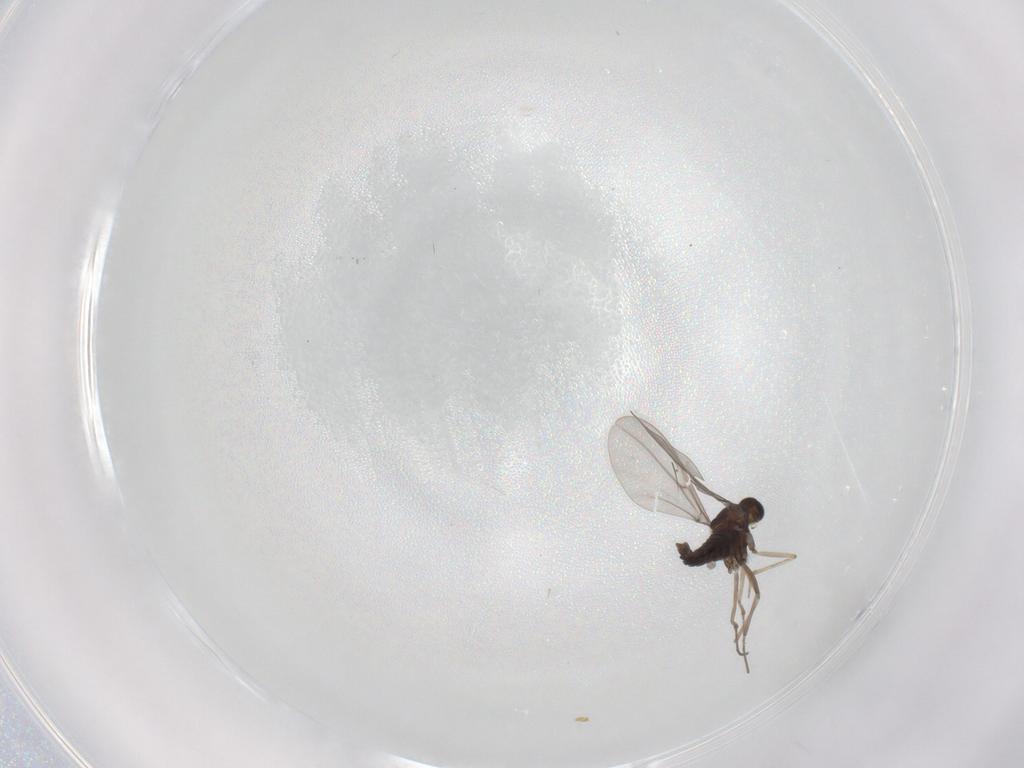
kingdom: Animalia
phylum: Arthropoda
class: Insecta
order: Diptera
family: Cecidomyiidae
